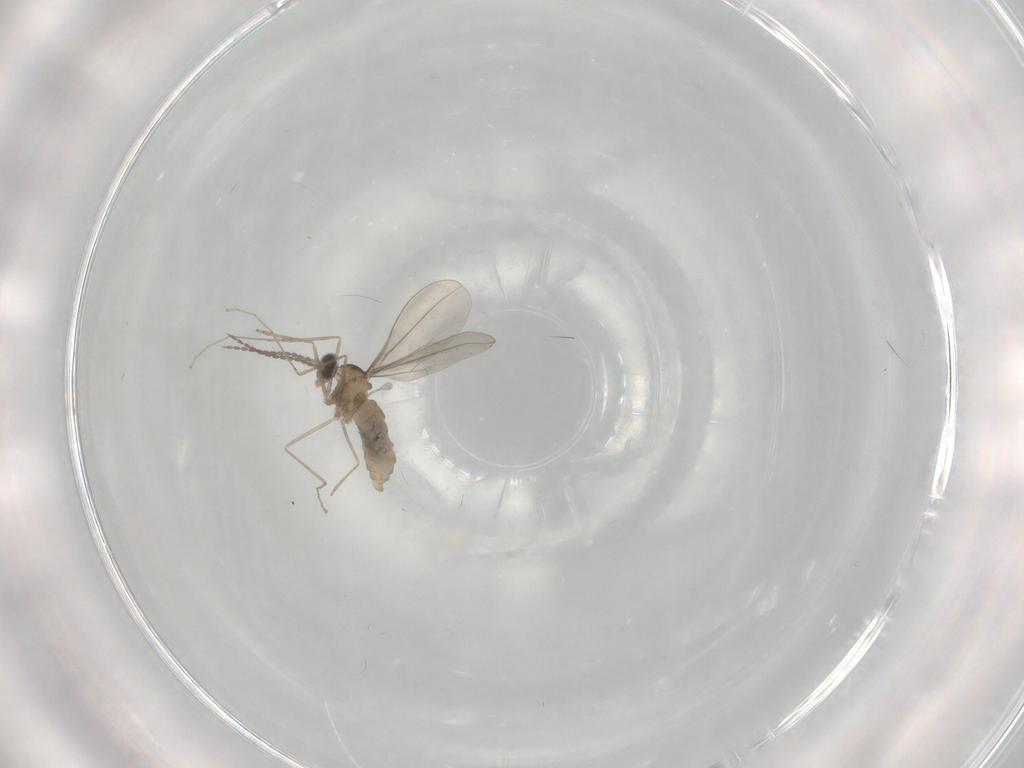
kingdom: Animalia
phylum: Arthropoda
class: Insecta
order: Diptera
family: Cecidomyiidae
